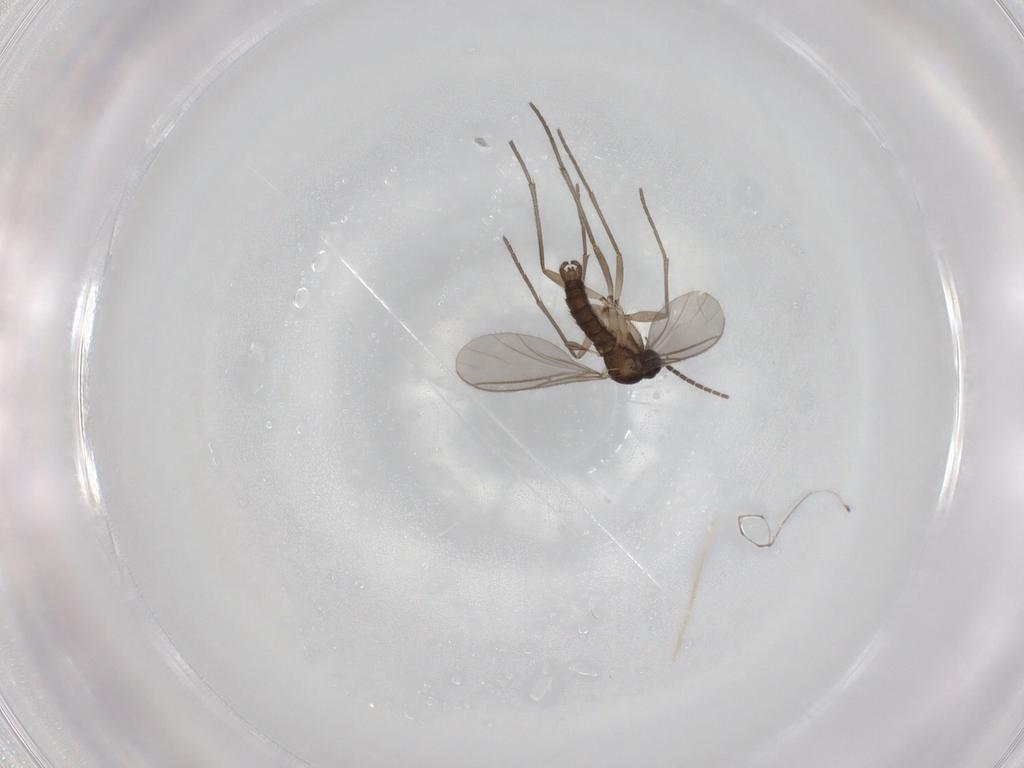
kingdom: Animalia
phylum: Arthropoda
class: Insecta
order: Diptera
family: Sciaridae
